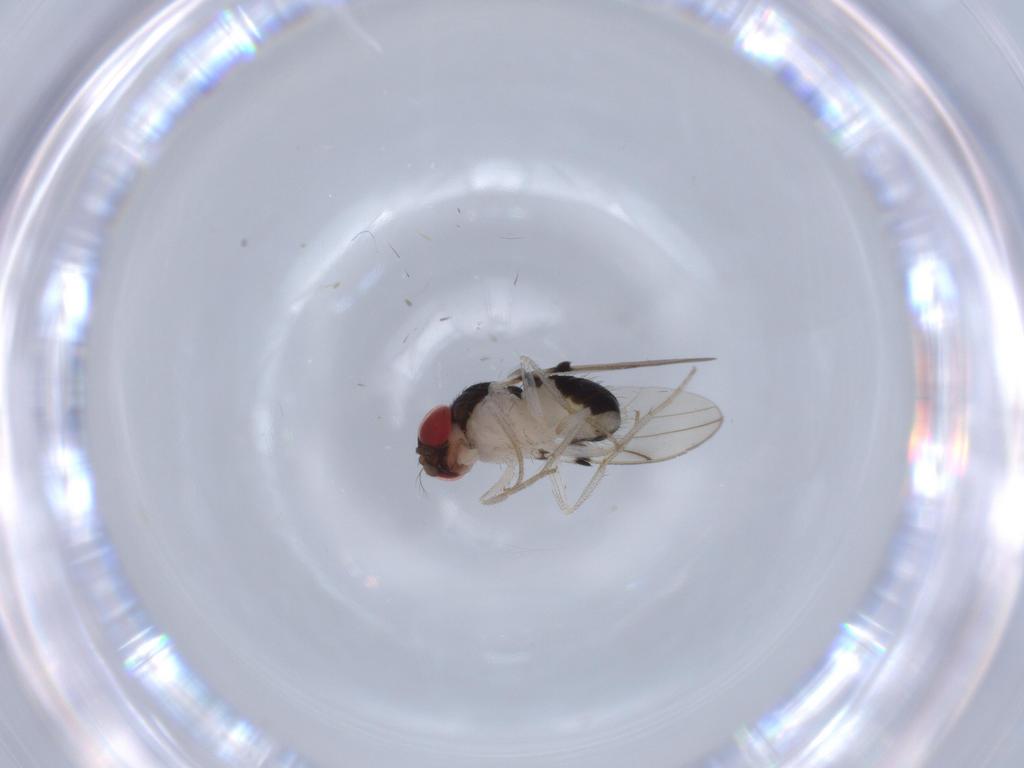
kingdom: Animalia
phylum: Arthropoda
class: Insecta
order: Diptera
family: Drosophilidae
